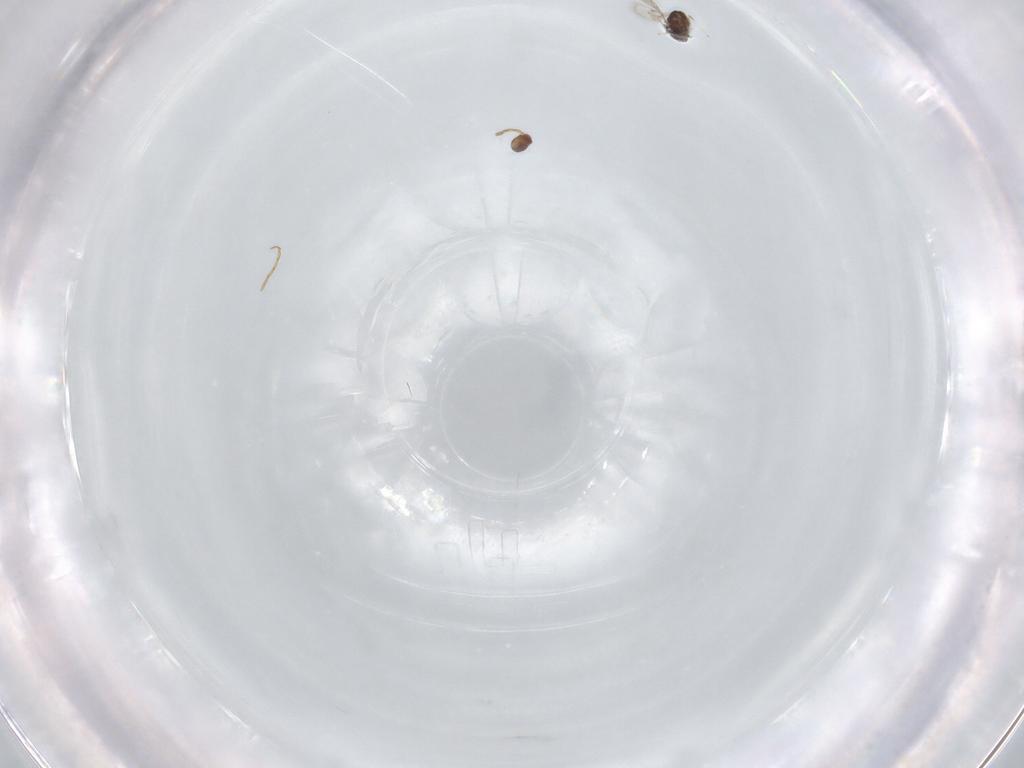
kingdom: Animalia
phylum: Arthropoda
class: Insecta
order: Hymenoptera
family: Aphelinidae
